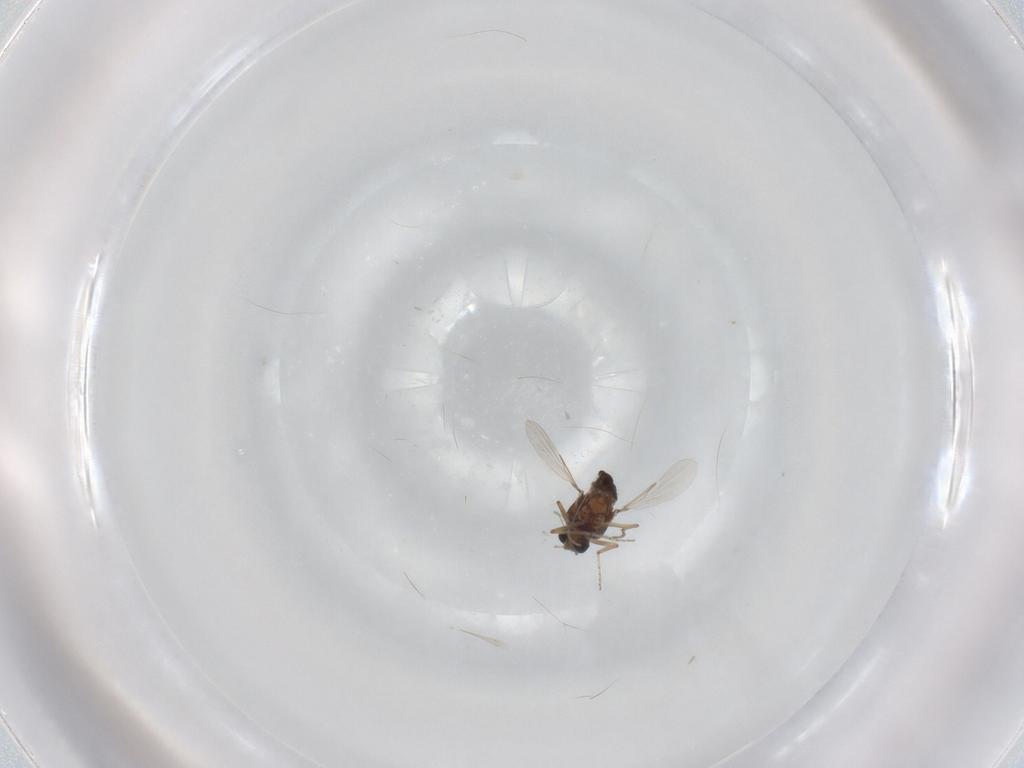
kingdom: Animalia
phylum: Arthropoda
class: Insecta
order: Diptera
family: Ceratopogonidae
